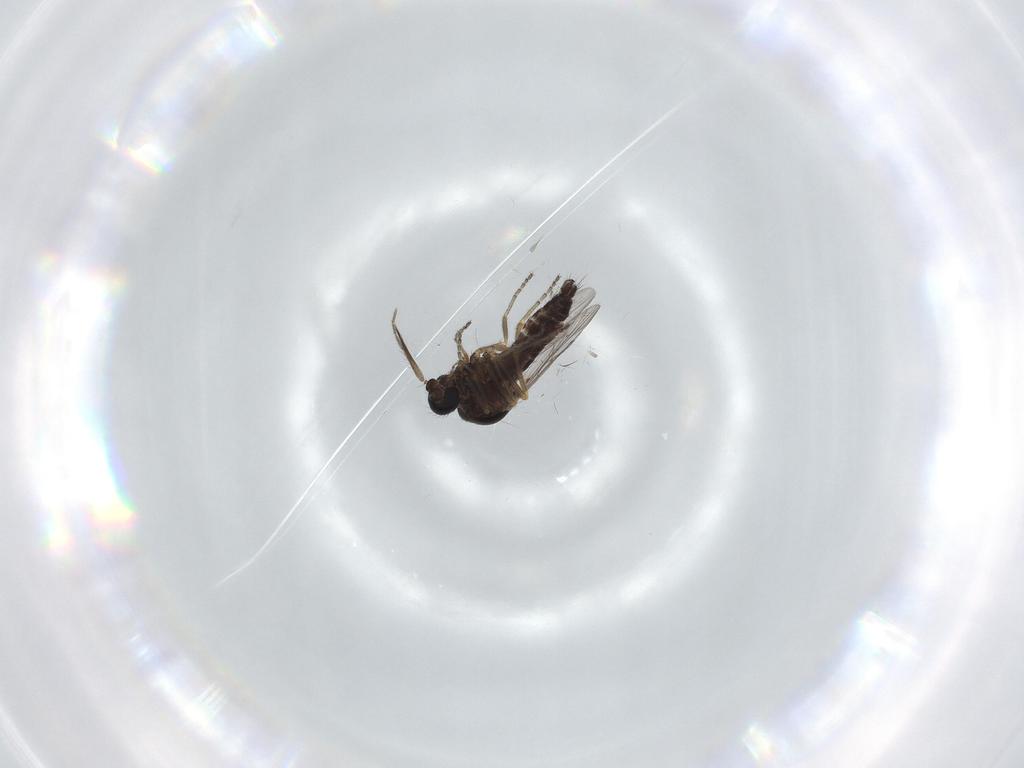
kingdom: Animalia
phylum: Arthropoda
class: Insecta
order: Diptera
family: Ceratopogonidae
